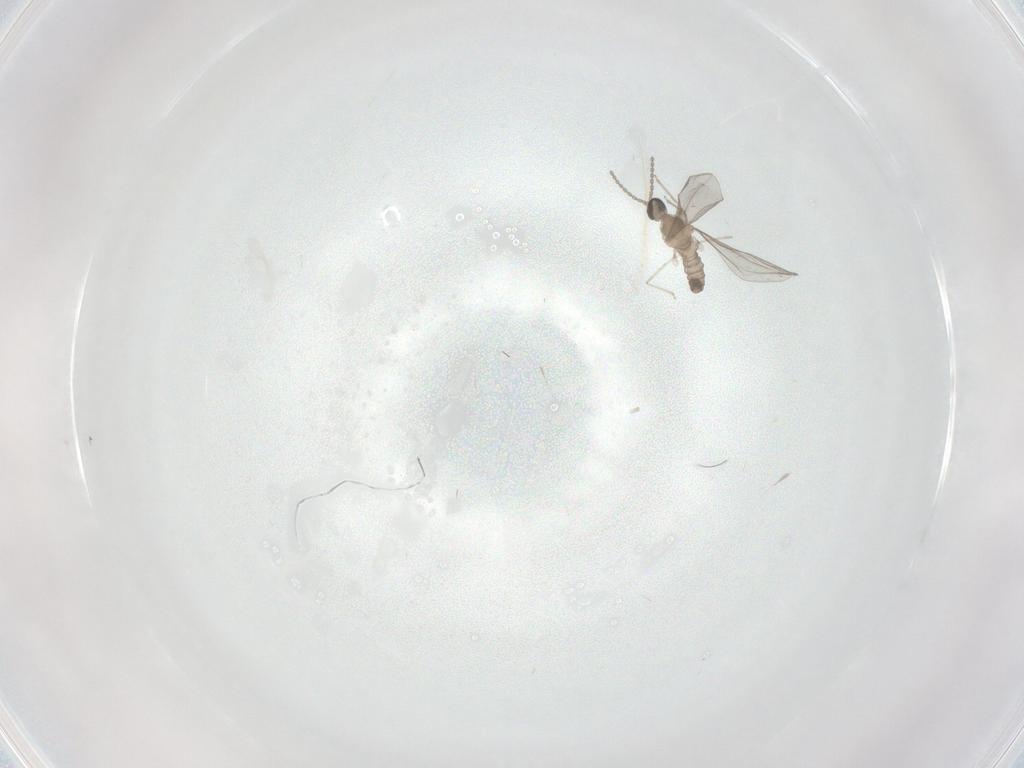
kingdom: Animalia
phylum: Arthropoda
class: Insecta
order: Diptera
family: Cecidomyiidae
